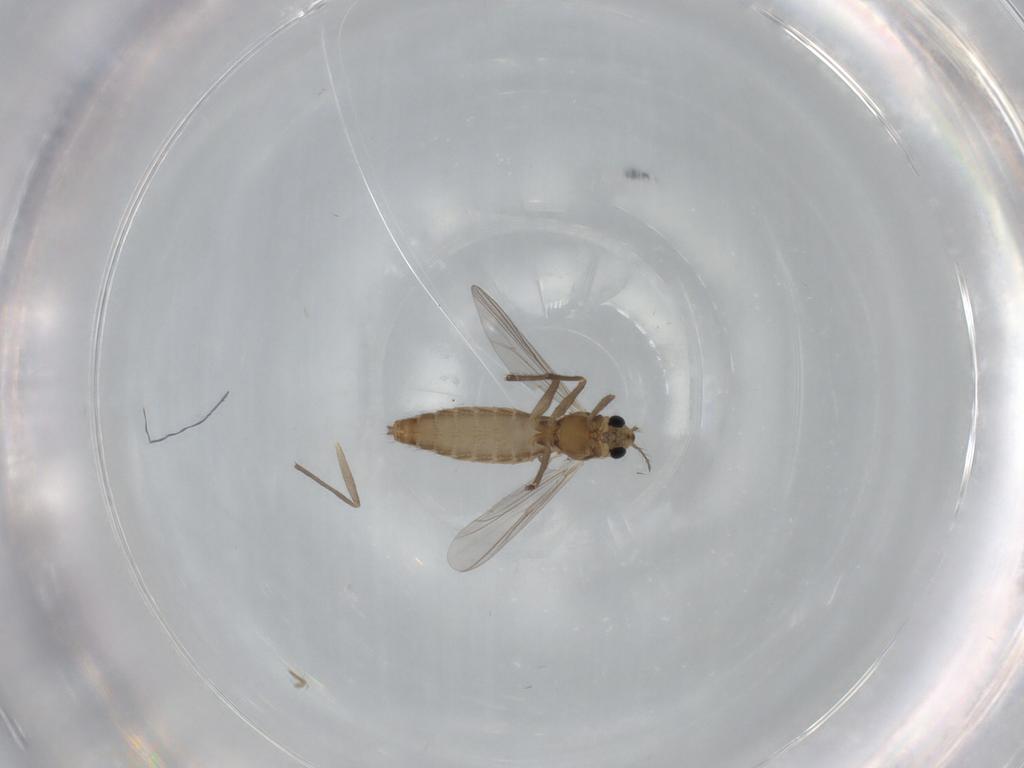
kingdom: Animalia
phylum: Arthropoda
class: Insecta
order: Diptera
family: Chironomidae
